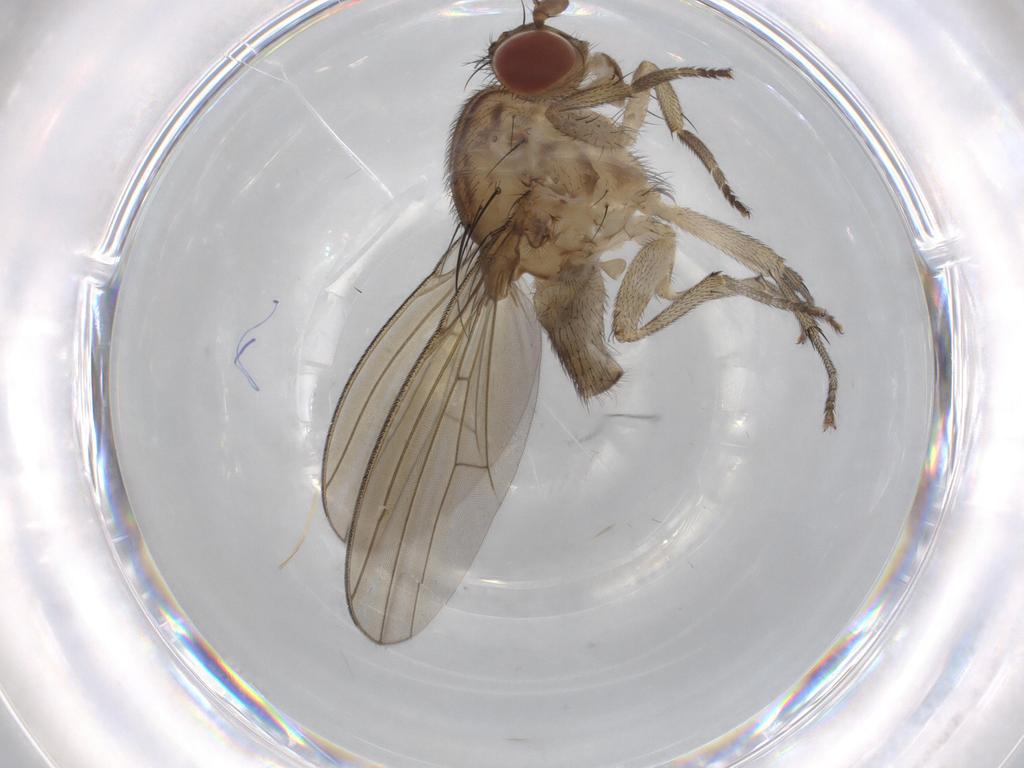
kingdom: Animalia
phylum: Arthropoda
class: Insecta
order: Diptera
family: Lauxaniidae
